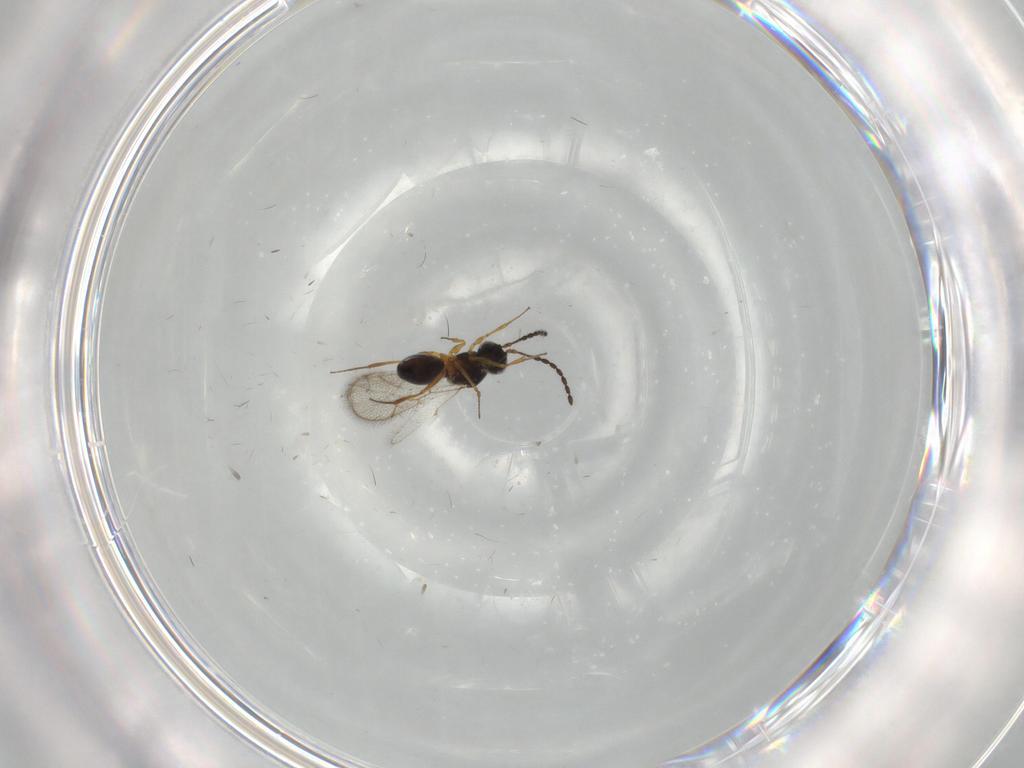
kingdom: Animalia
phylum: Arthropoda
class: Insecta
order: Hymenoptera
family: Figitidae
